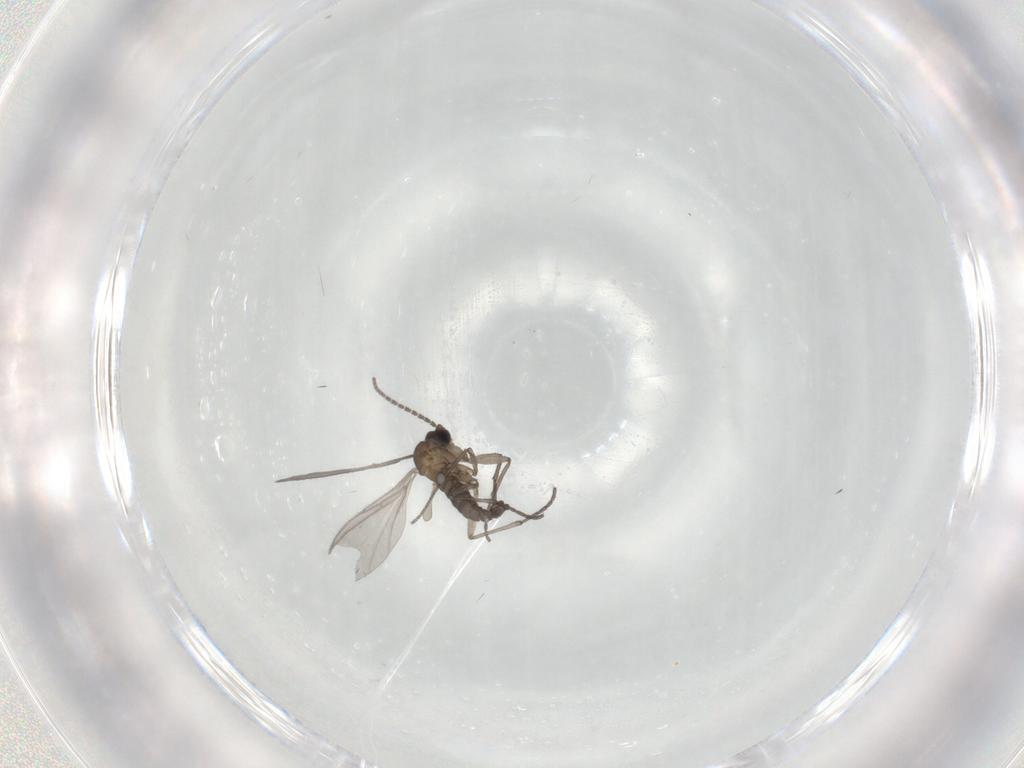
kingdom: Animalia
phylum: Arthropoda
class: Insecta
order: Diptera
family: Sciaridae
